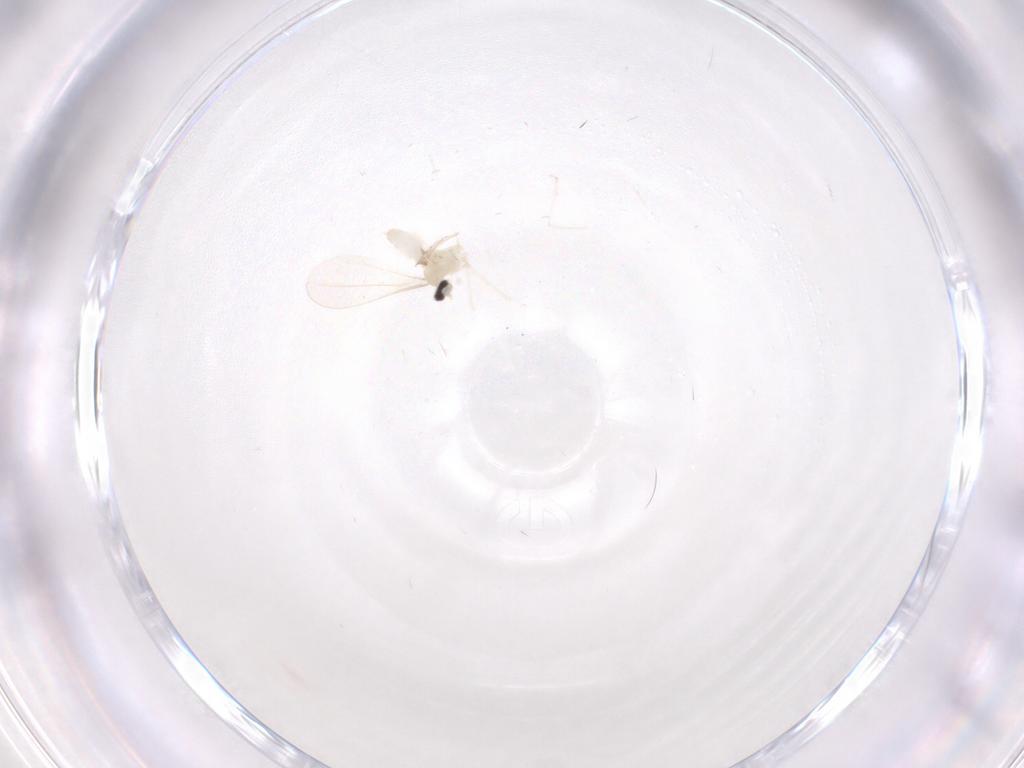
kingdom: Animalia
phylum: Arthropoda
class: Insecta
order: Diptera
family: Cecidomyiidae
